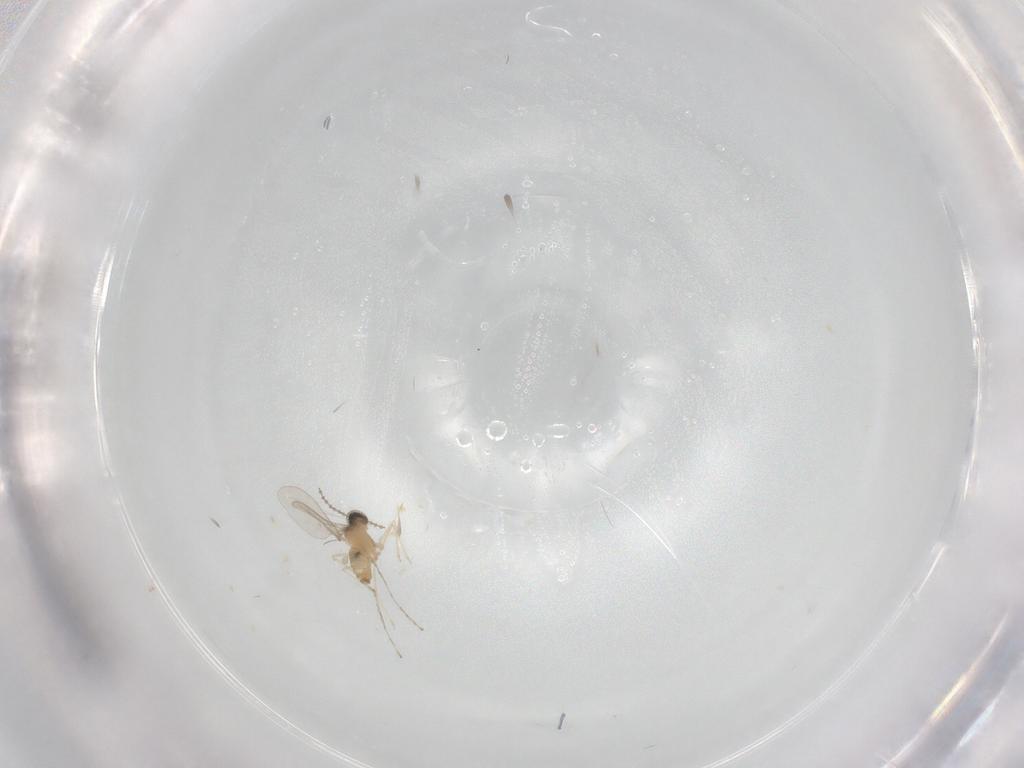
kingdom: Animalia
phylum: Arthropoda
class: Insecta
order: Diptera
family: Cecidomyiidae
